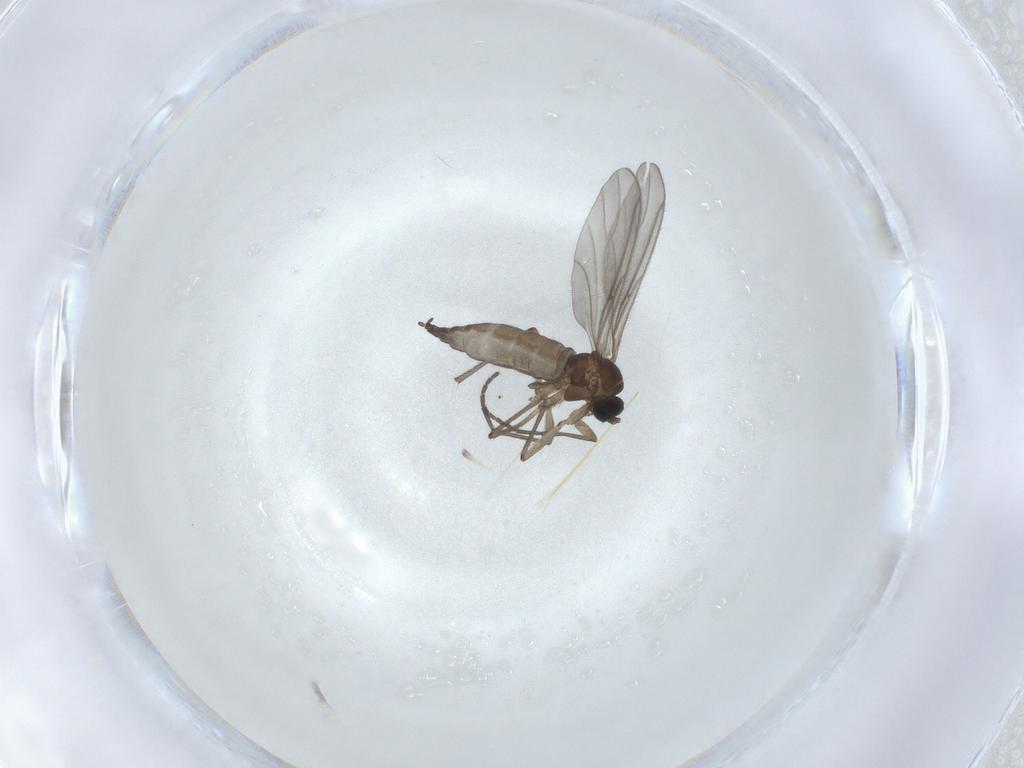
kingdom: Animalia
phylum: Arthropoda
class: Insecta
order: Diptera
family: Sciaridae
